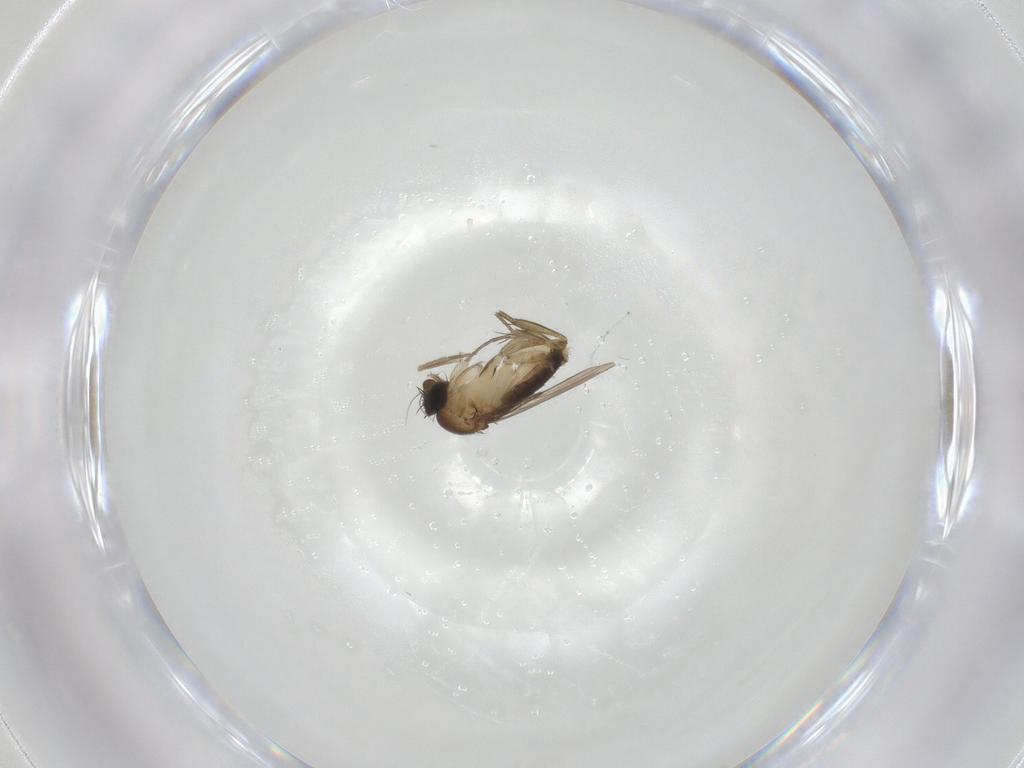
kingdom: Animalia
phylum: Arthropoda
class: Insecta
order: Diptera
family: Phoridae
